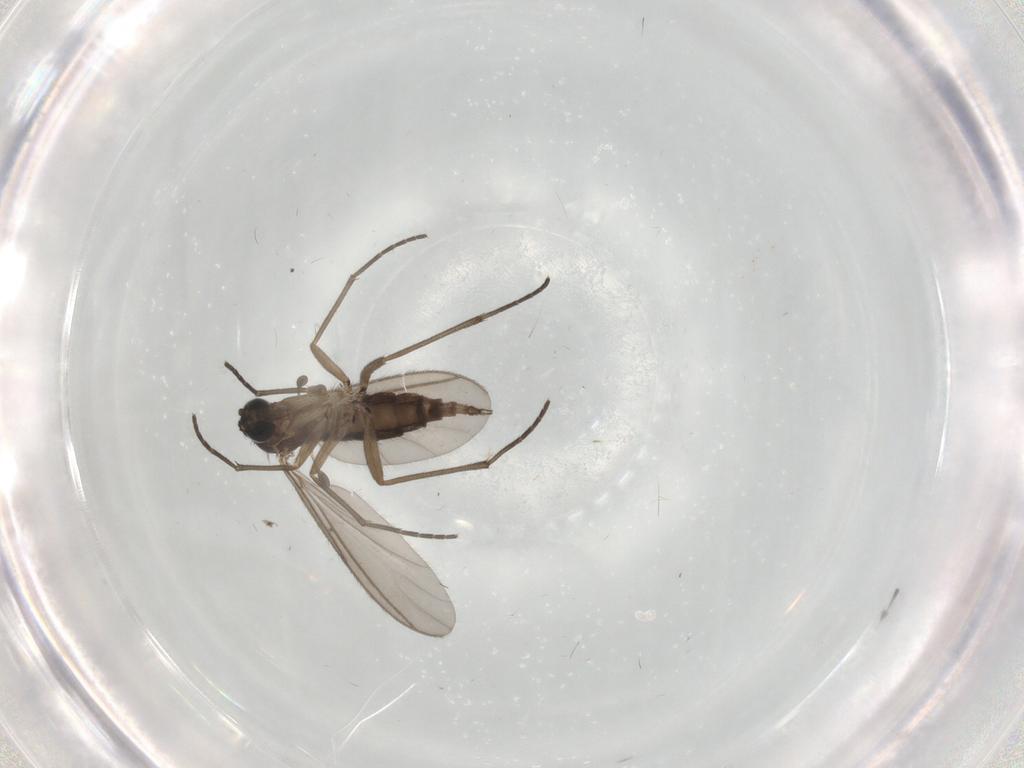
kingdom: Animalia
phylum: Arthropoda
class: Insecta
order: Diptera
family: Sciaridae
